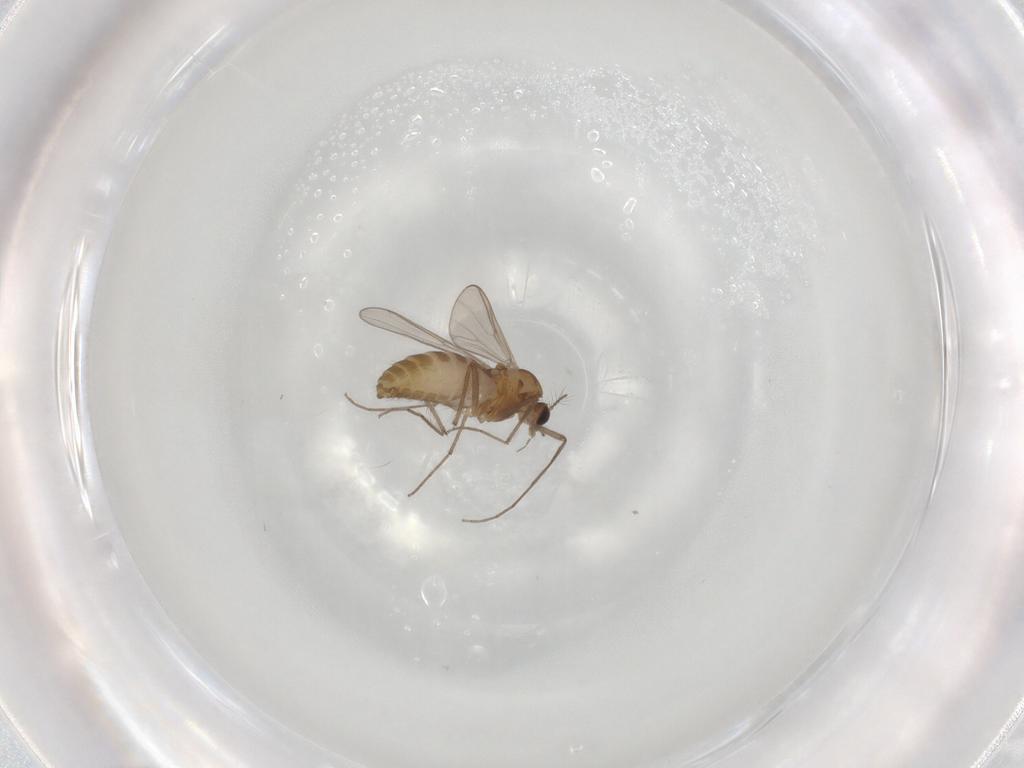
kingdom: Animalia
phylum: Arthropoda
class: Insecta
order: Diptera
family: Chironomidae
